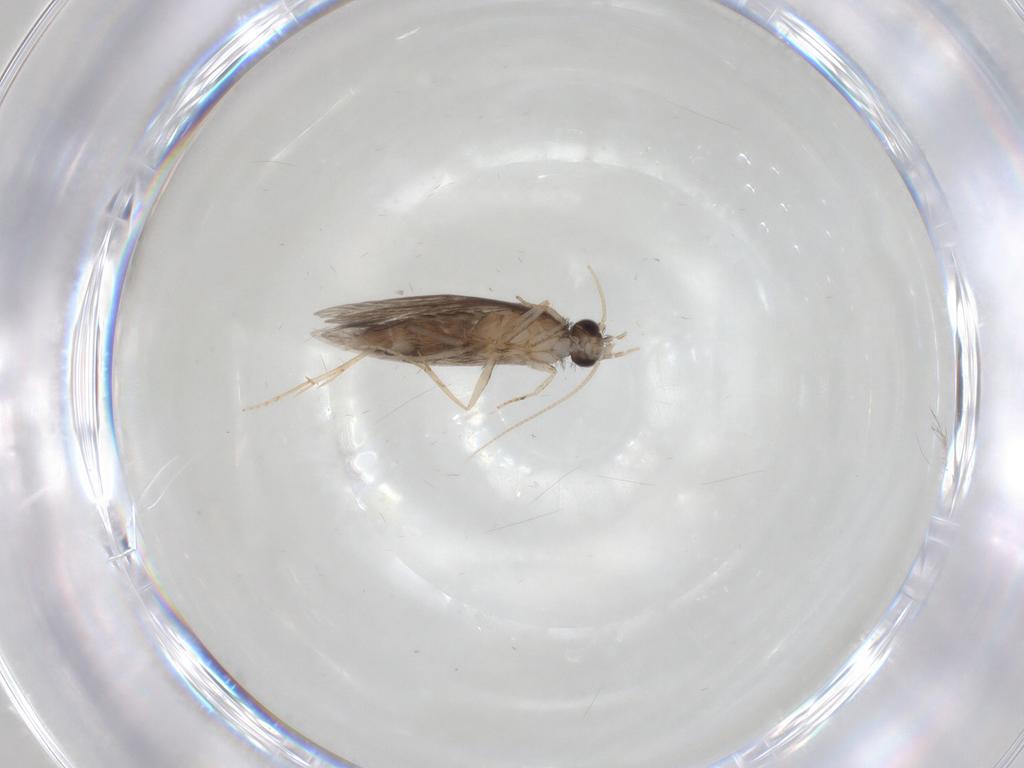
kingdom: Animalia
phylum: Arthropoda
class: Insecta
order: Trichoptera
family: Hydroptilidae
